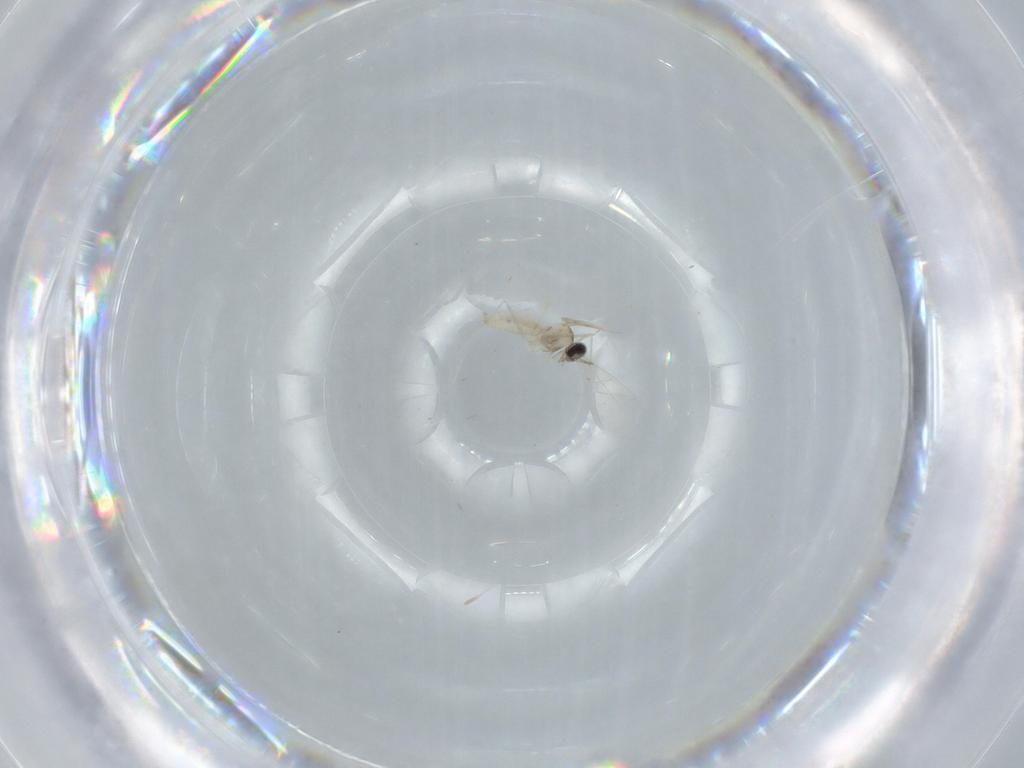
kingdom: Animalia
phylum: Arthropoda
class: Insecta
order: Diptera
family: Cecidomyiidae
